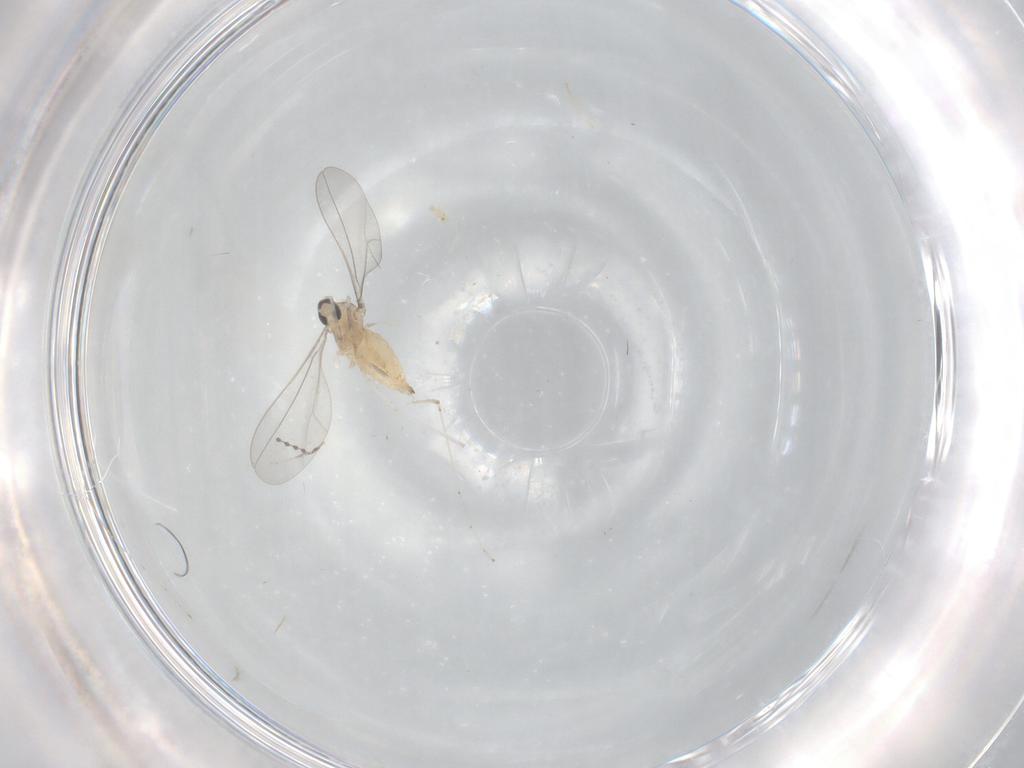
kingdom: Animalia
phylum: Arthropoda
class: Insecta
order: Diptera
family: Cecidomyiidae
